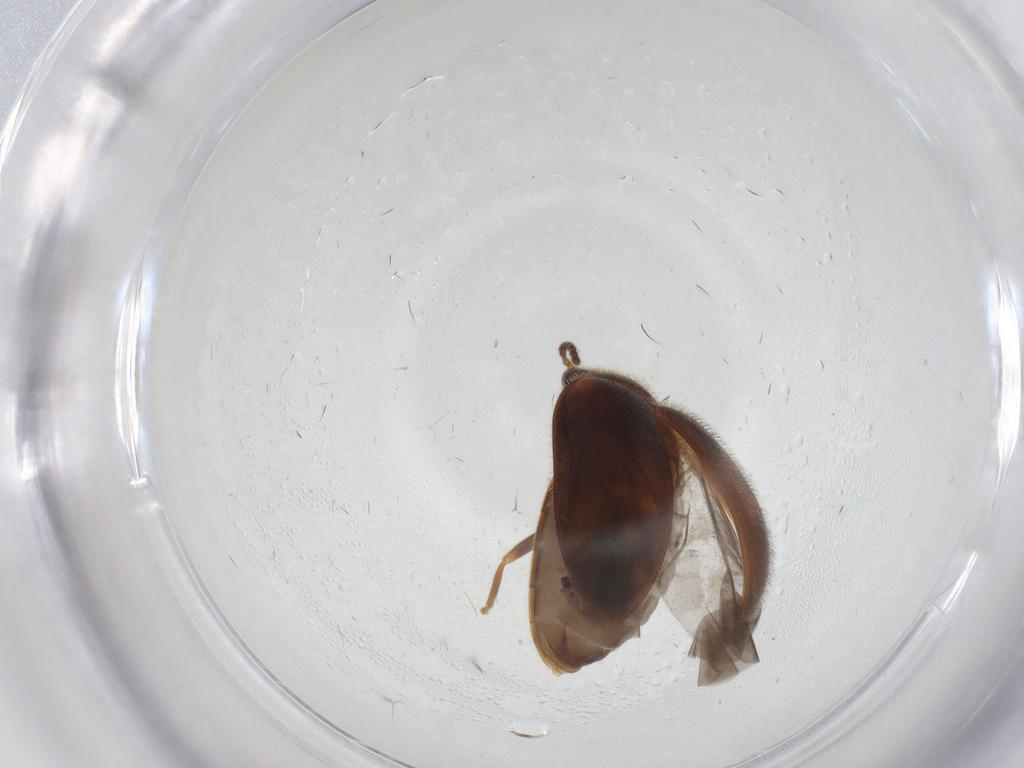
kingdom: Animalia
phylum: Arthropoda
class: Insecta
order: Coleoptera
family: Scirtidae
